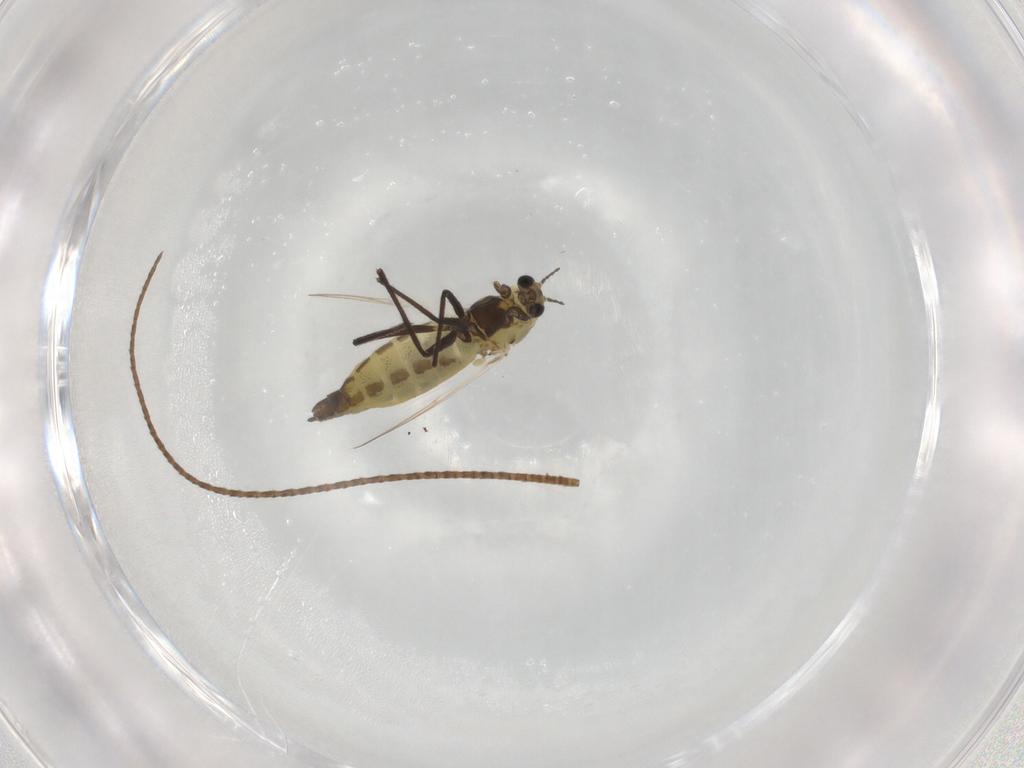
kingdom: Animalia
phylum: Arthropoda
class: Insecta
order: Diptera
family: Chironomidae
